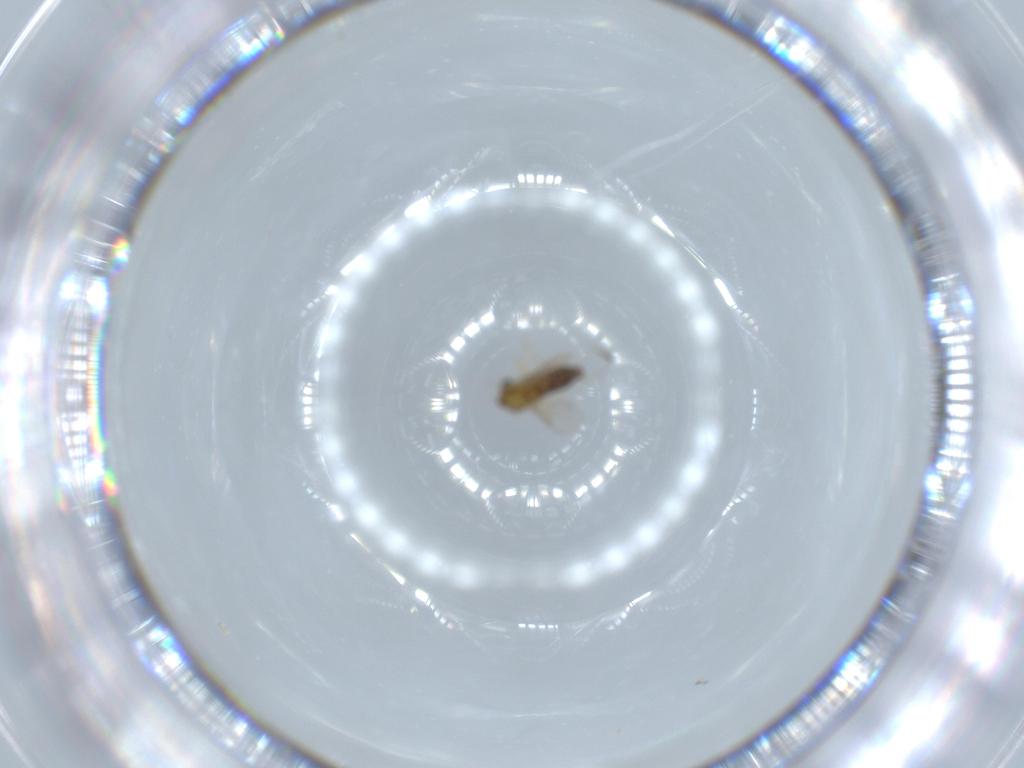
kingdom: Animalia
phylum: Arthropoda
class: Insecta
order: Diptera
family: Chironomidae
